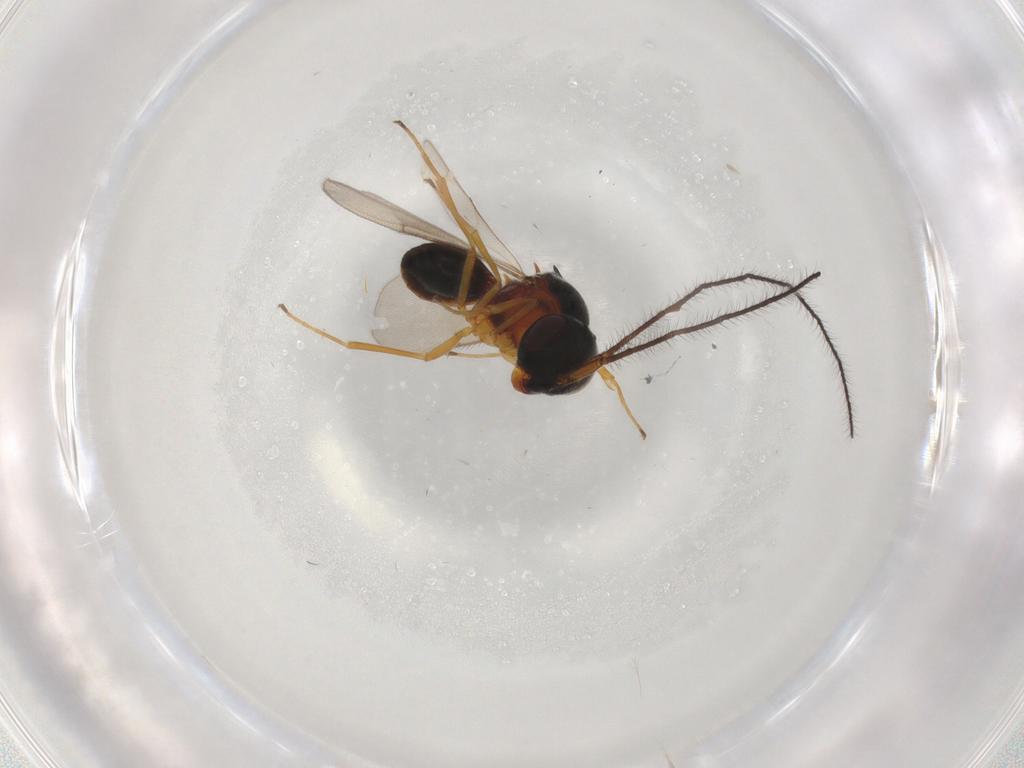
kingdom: Animalia
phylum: Arthropoda
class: Insecta
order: Hymenoptera
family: Scelionidae
